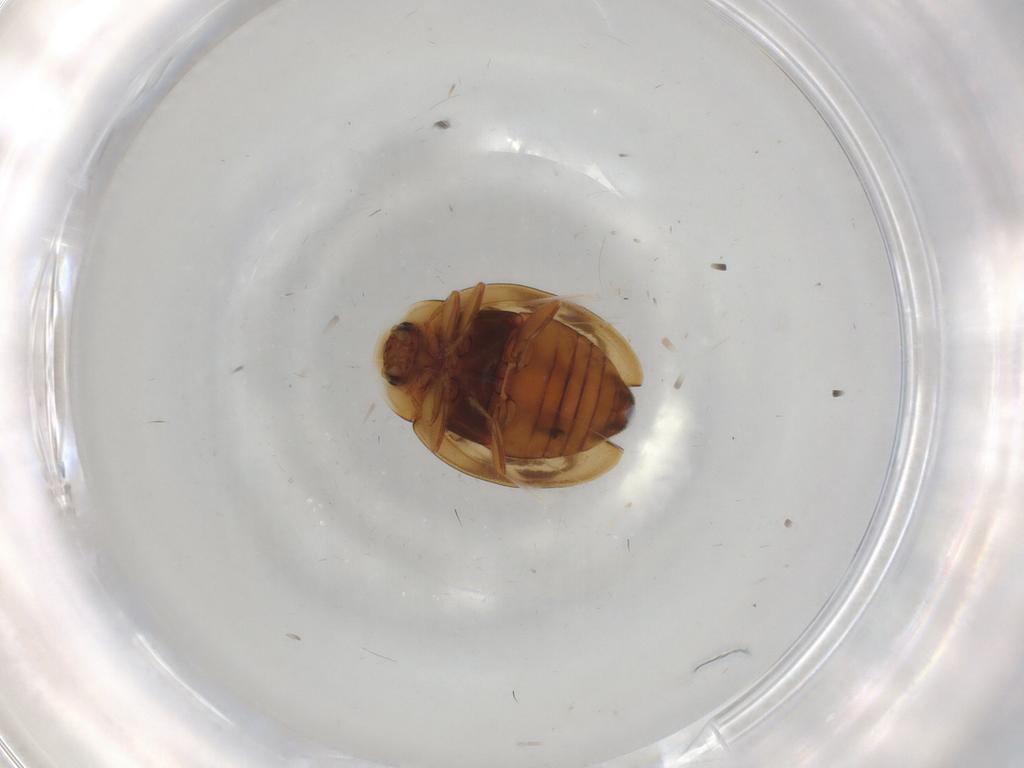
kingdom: Animalia
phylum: Arthropoda
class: Insecta
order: Coleoptera
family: Coccinellidae
